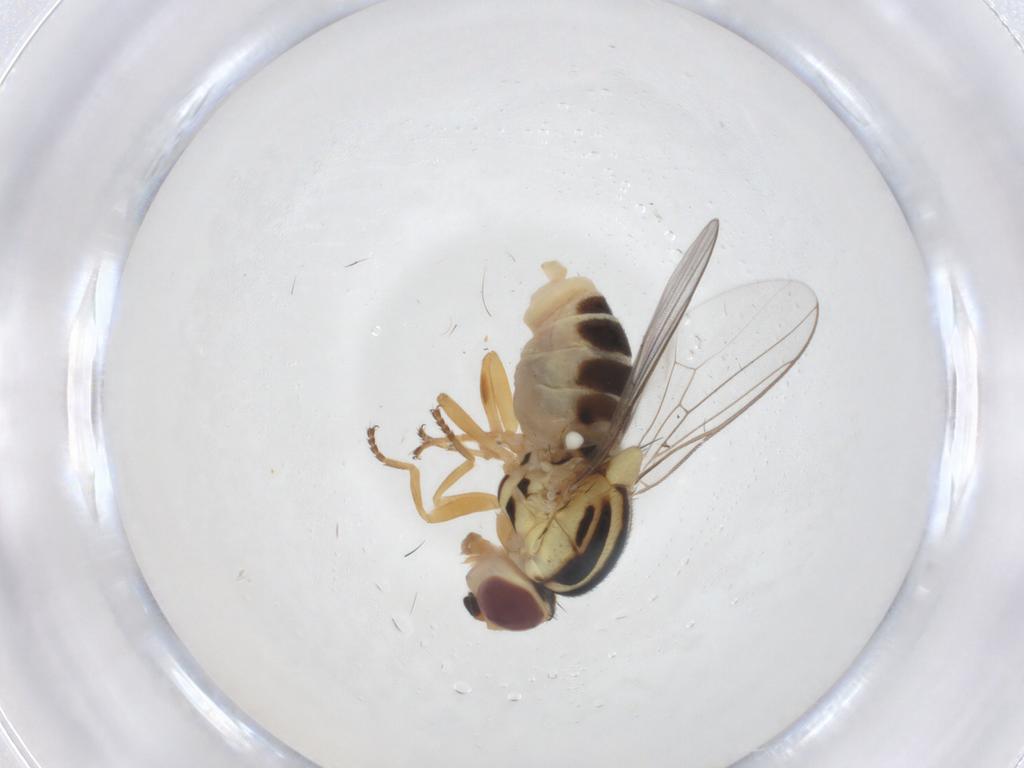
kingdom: Animalia
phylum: Arthropoda
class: Insecta
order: Diptera
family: Chloropidae
